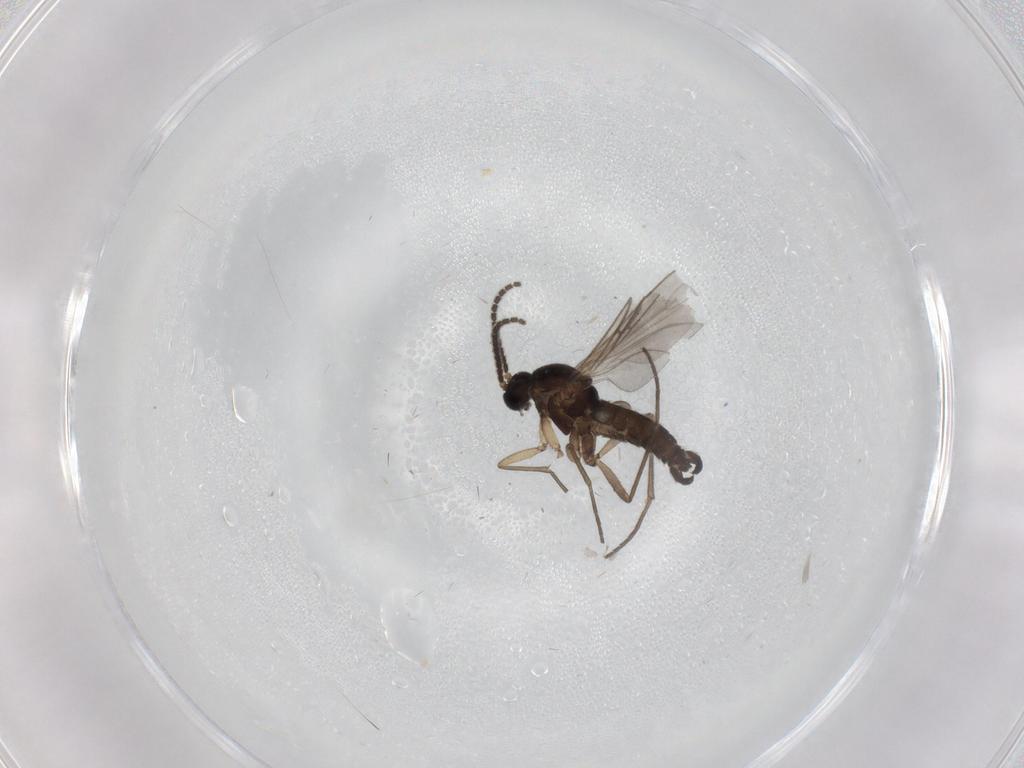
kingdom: Animalia
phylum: Arthropoda
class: Insecta
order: Diptera
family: Sciaridae
